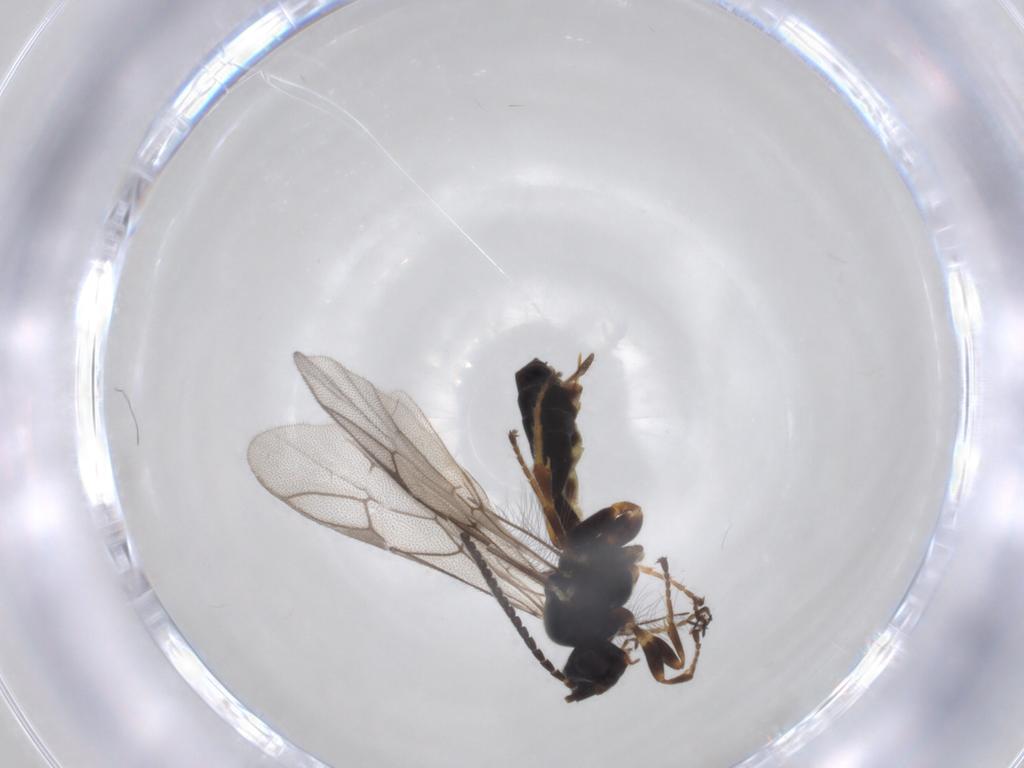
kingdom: Animalia
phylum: Arthropoda
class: Insecta
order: Hymenoptera
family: Ichneumonidae
